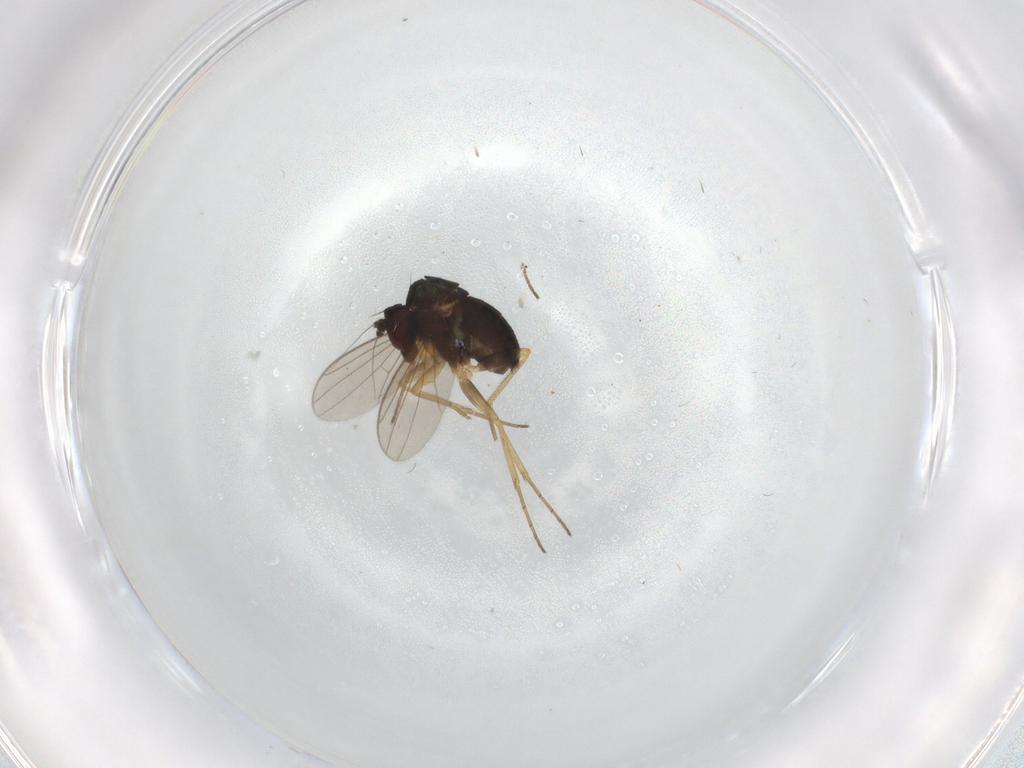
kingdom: Animalia
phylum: Arthropoda
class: Insecta
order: Diptera
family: Phoridae
